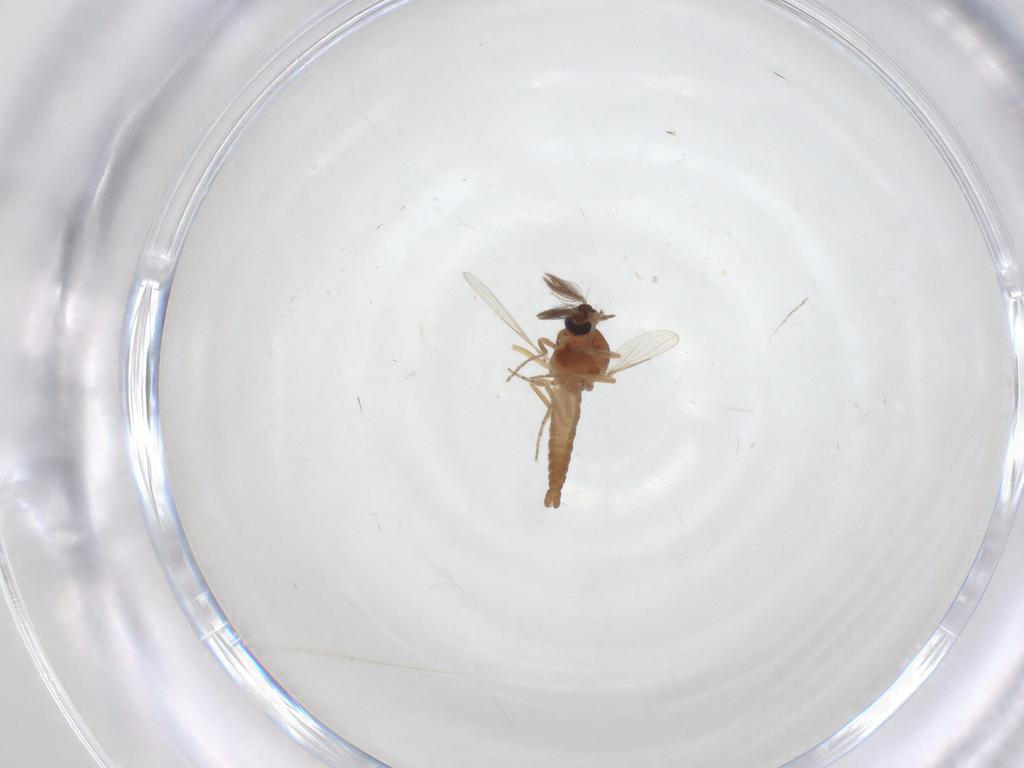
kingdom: Animalia
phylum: Arthropoda
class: Insecta
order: Diptera
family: Ceratopogonidae
